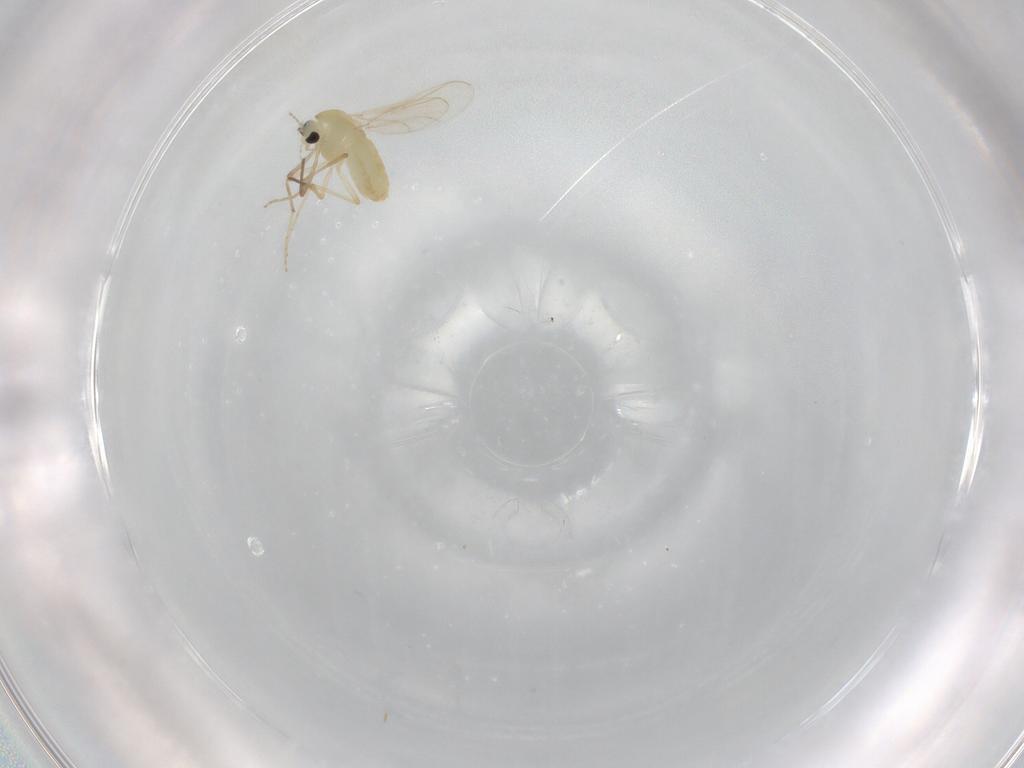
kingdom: Animalia
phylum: Arthropoda
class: Insecta
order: Diptera
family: Chironomidae
